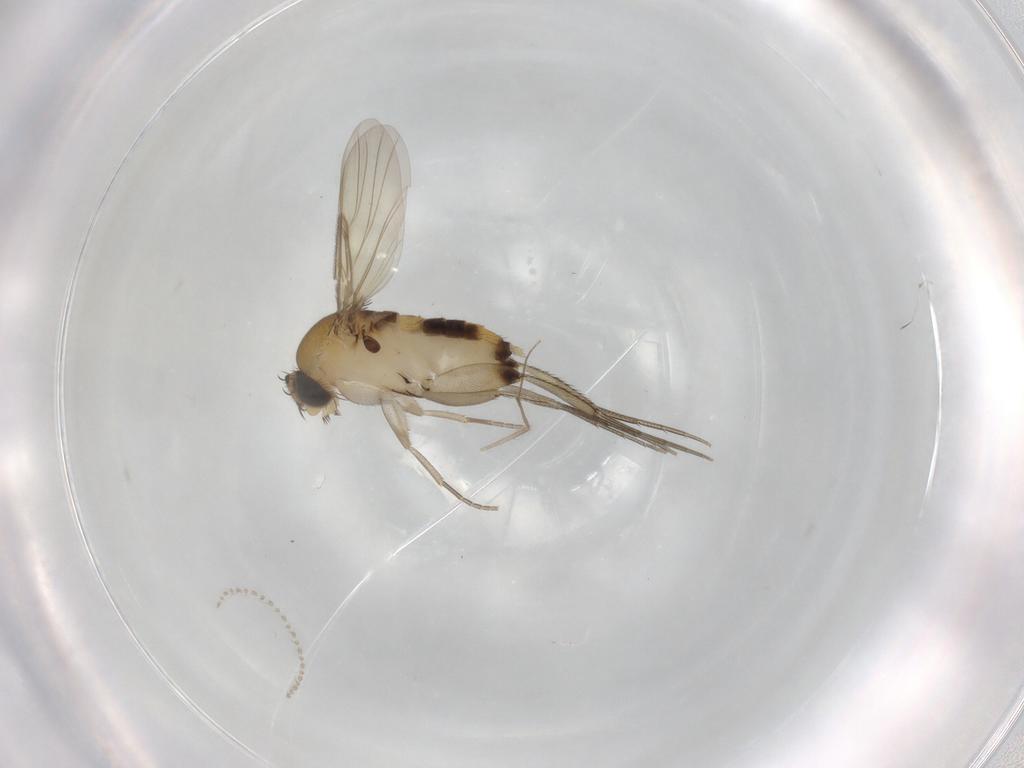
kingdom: Animalia
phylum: Arthropoda
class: Insecta
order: Diptera
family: Phoridae
